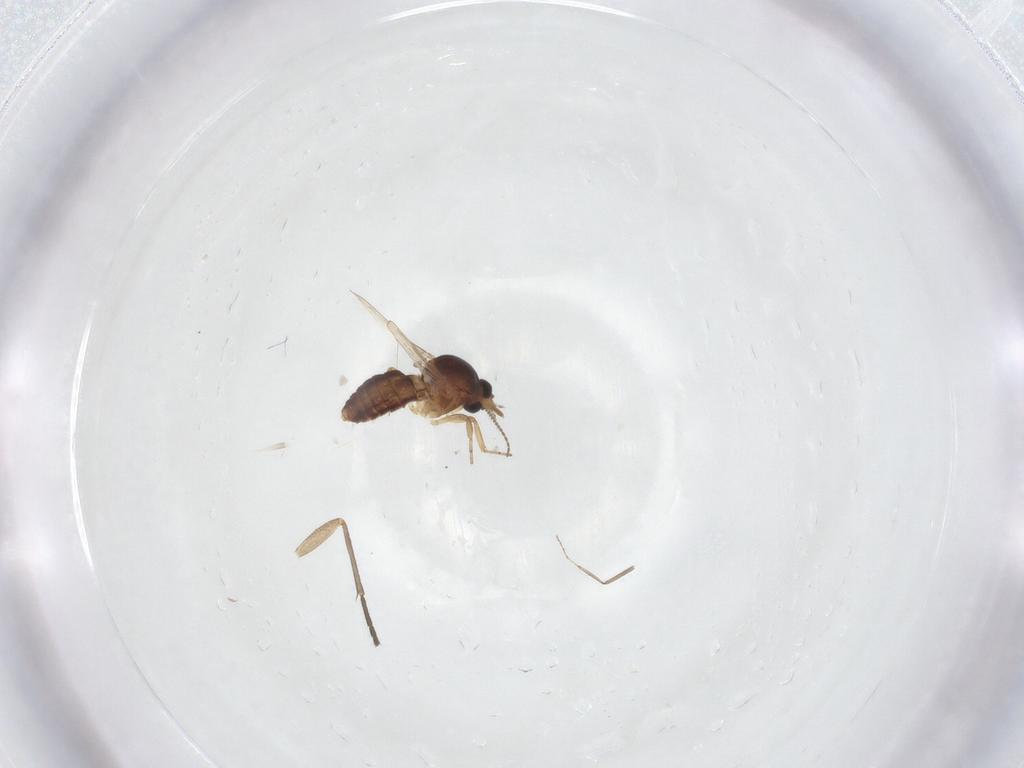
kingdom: Animalia
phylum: Arthropoda
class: Insecta
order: Diptera
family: Ceratopogonidae
